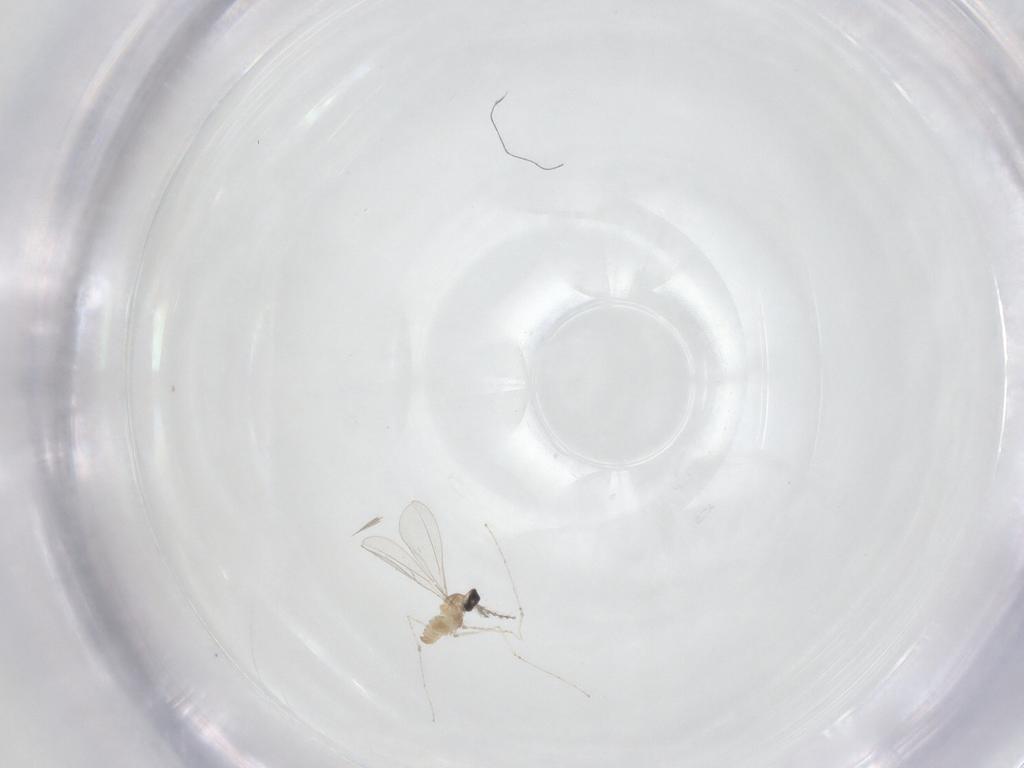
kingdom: Animalia
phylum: Arthropoda
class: Insecta
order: Diptera
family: Cecidomyiidae
